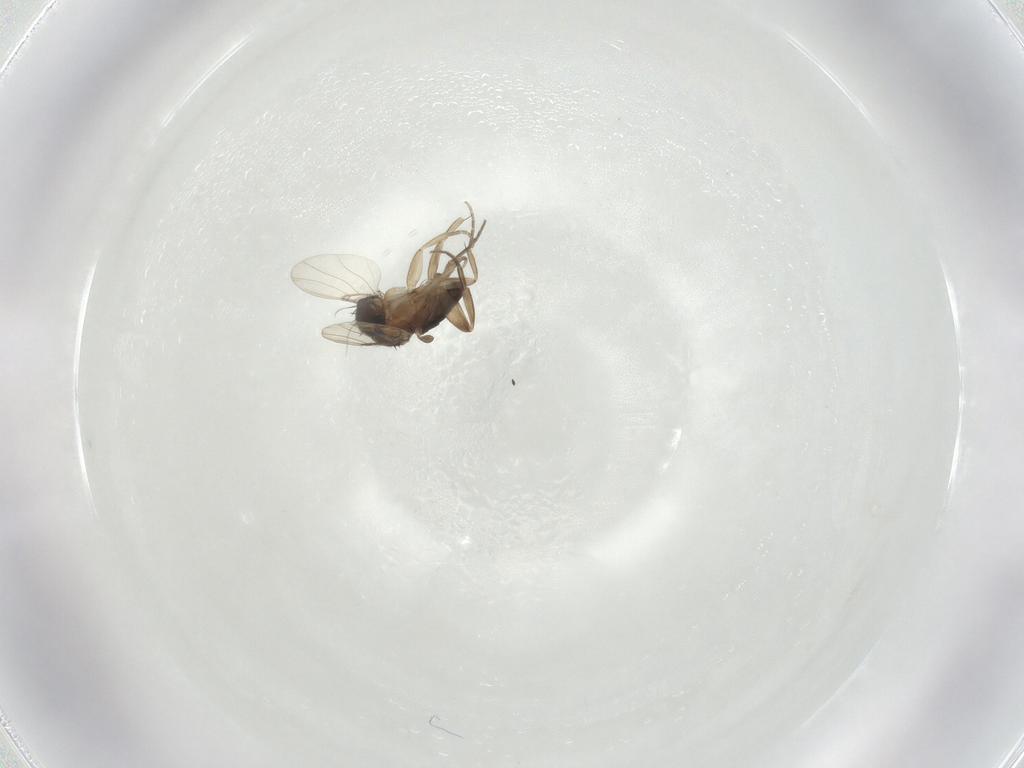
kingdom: Animalia
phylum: Arthropoda
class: Insecta
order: Diptera
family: Phoridae
